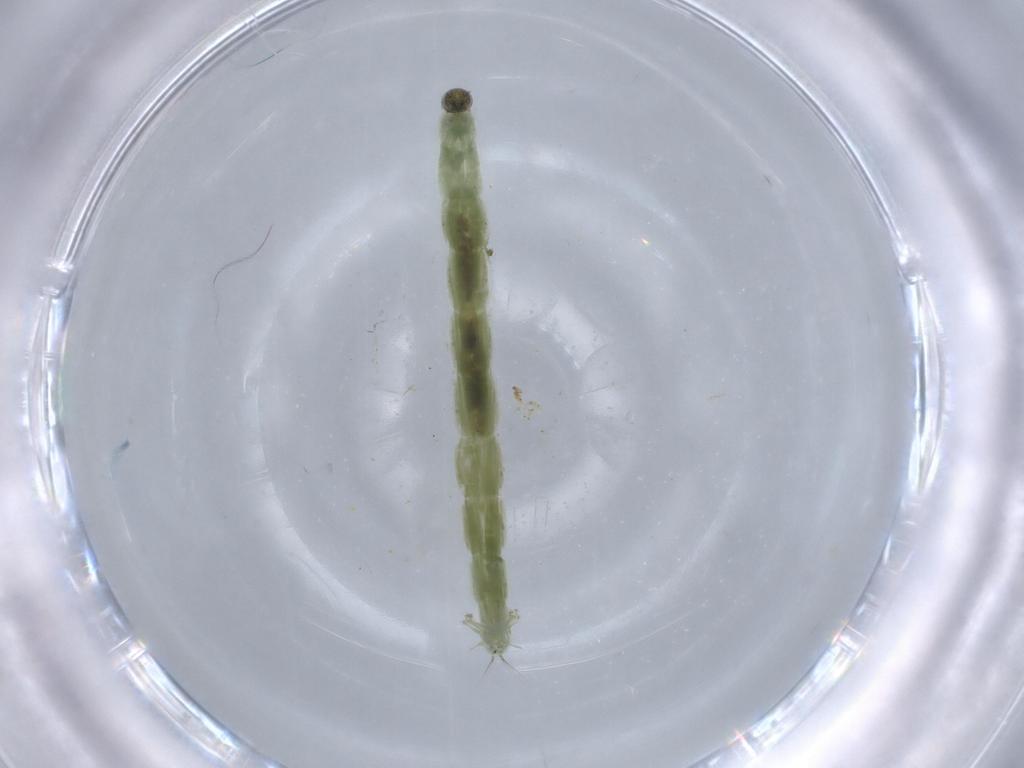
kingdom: Animalia
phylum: Arthropoda
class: Insecta
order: Diptera
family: Chironomidae
